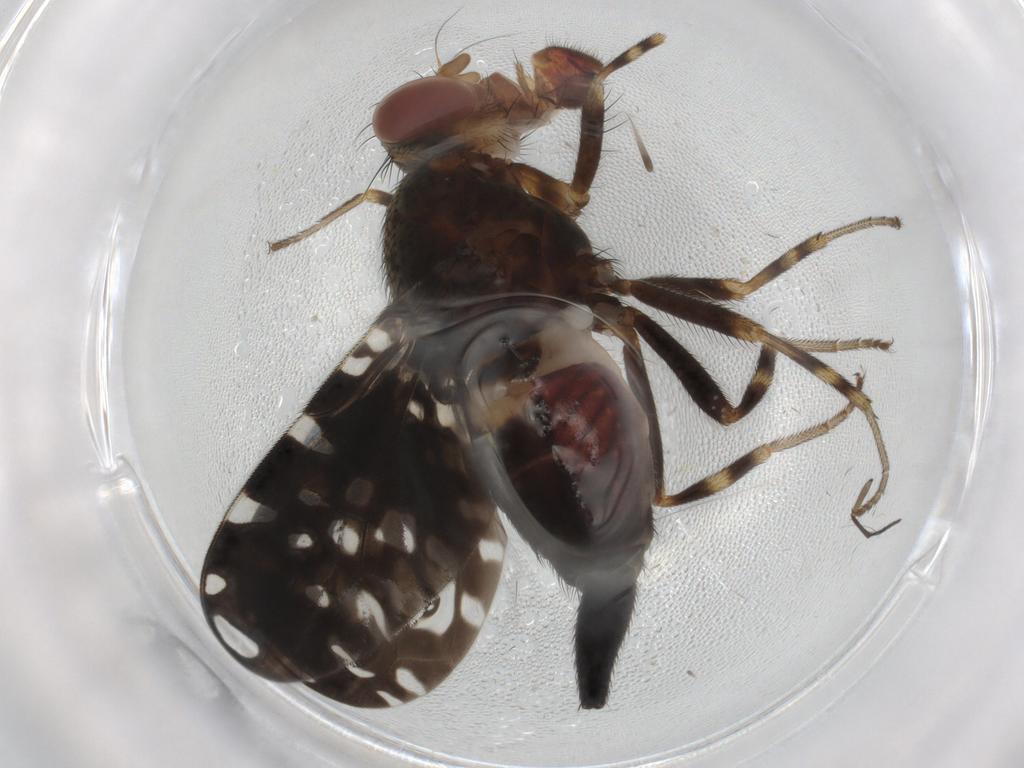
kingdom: Animalia
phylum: Arthropoda
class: Insecta
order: Diptera
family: Ulidiidae
